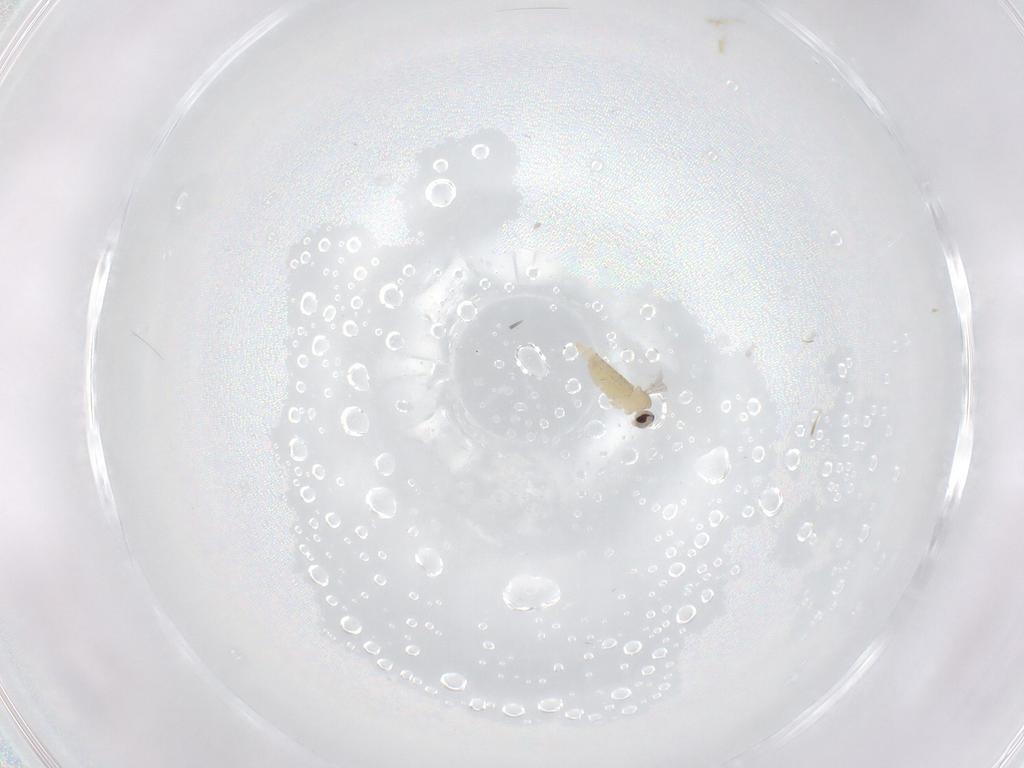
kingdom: Animalia
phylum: Arthropoda
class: Insecta
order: Diptera
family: Cecidomyiidae
